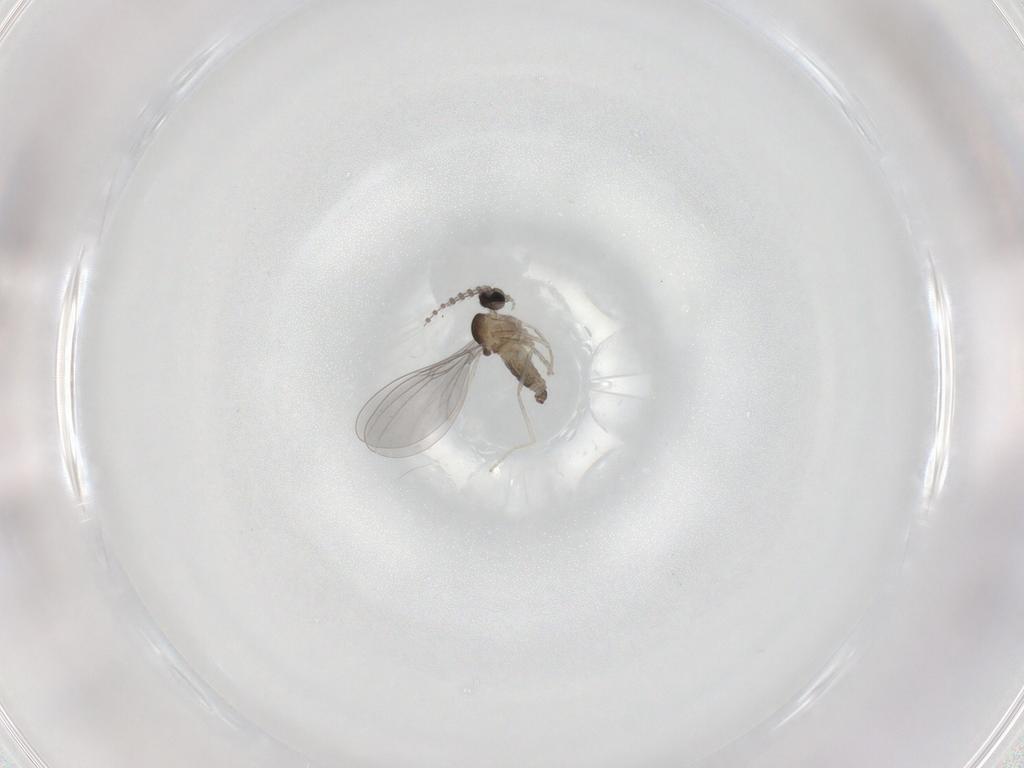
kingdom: Animalia
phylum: Arthropoda
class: Insecta
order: Diptera
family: Cecidomyiidae
